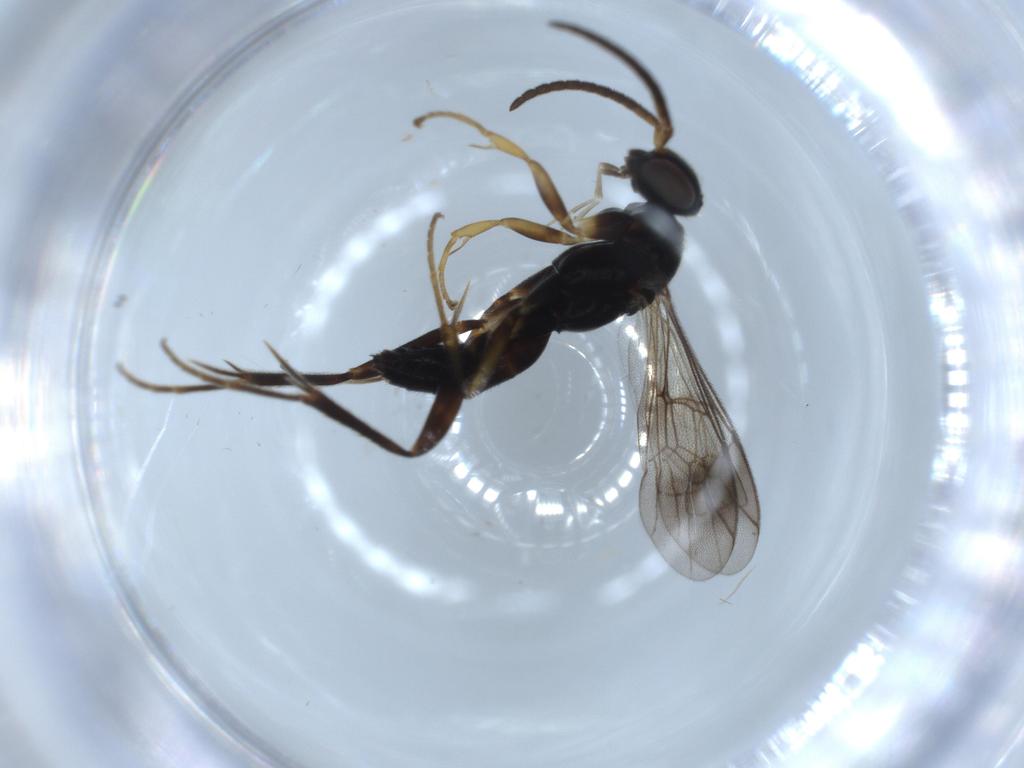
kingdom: Animalia
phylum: Arthropoda
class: Insecta
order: Hymenoptera
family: Pompilidae
